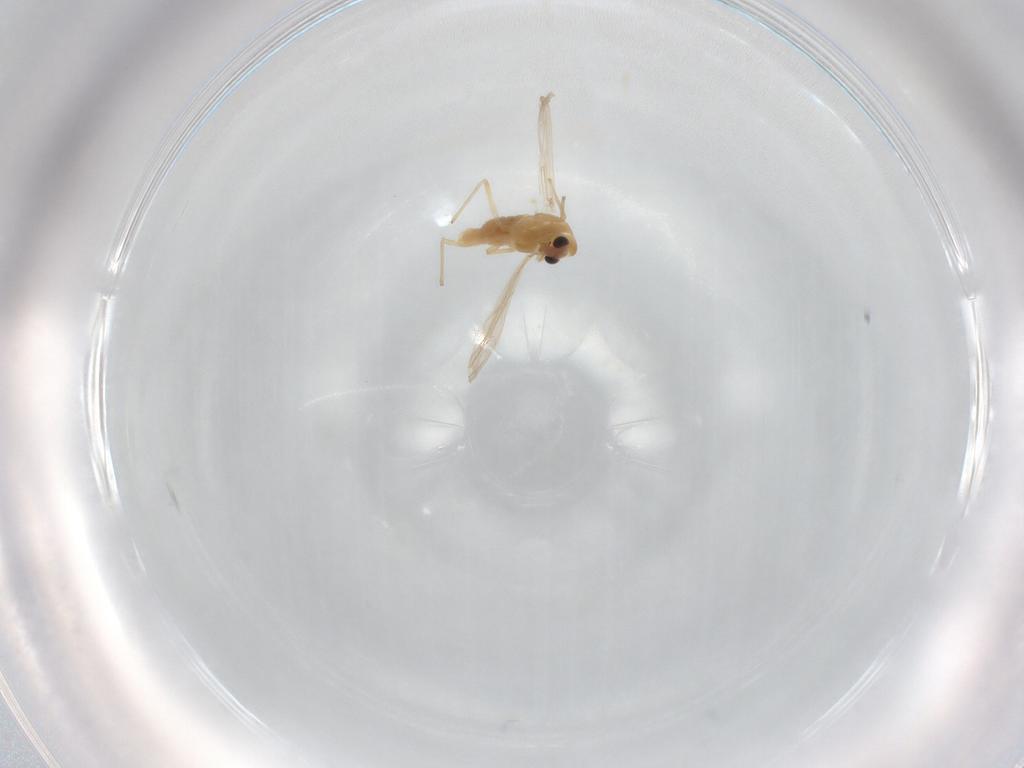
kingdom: Animalia
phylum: Arthropoda
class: Insecta
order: Diptera
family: Chironomidae
